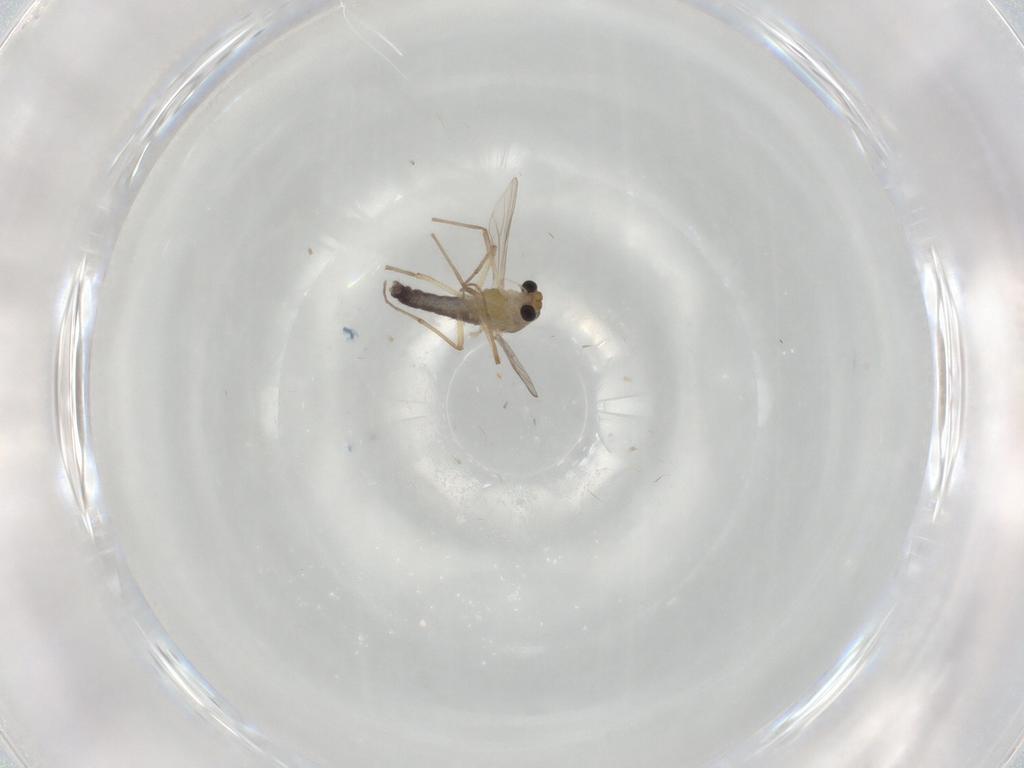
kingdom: Animalia
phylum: Arthropoda
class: Insecta
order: Diptera
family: Chironomidae
